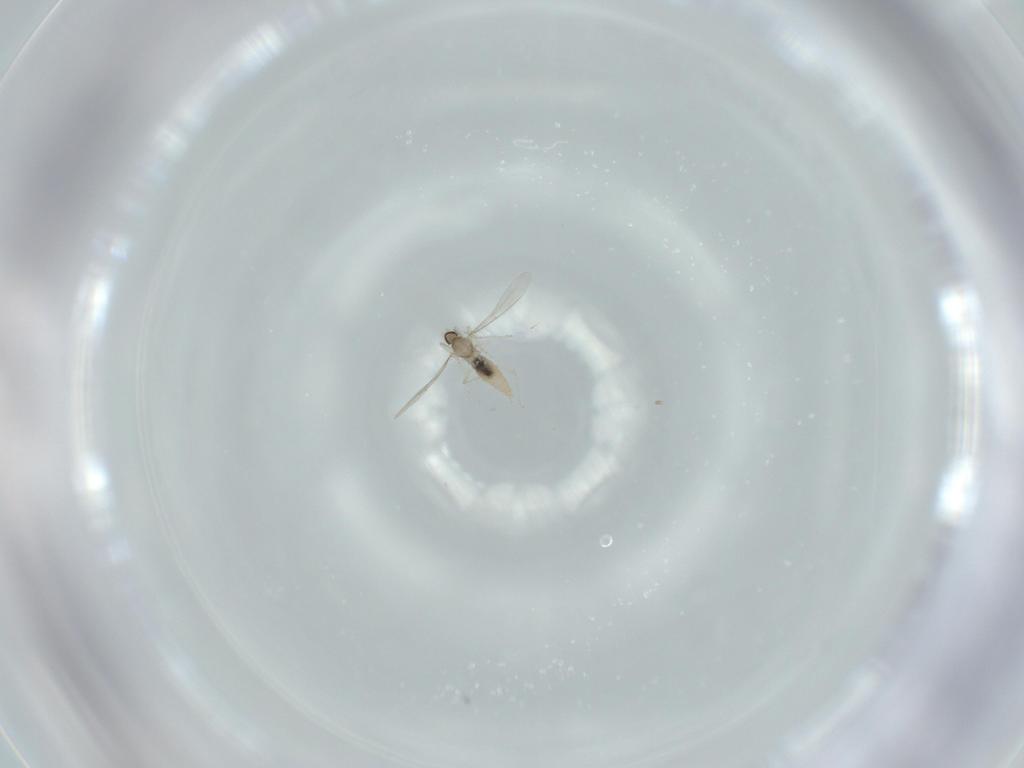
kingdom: Animalia
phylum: Arthropoda
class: Insecta
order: Diptera
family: Cecidomyiidae
